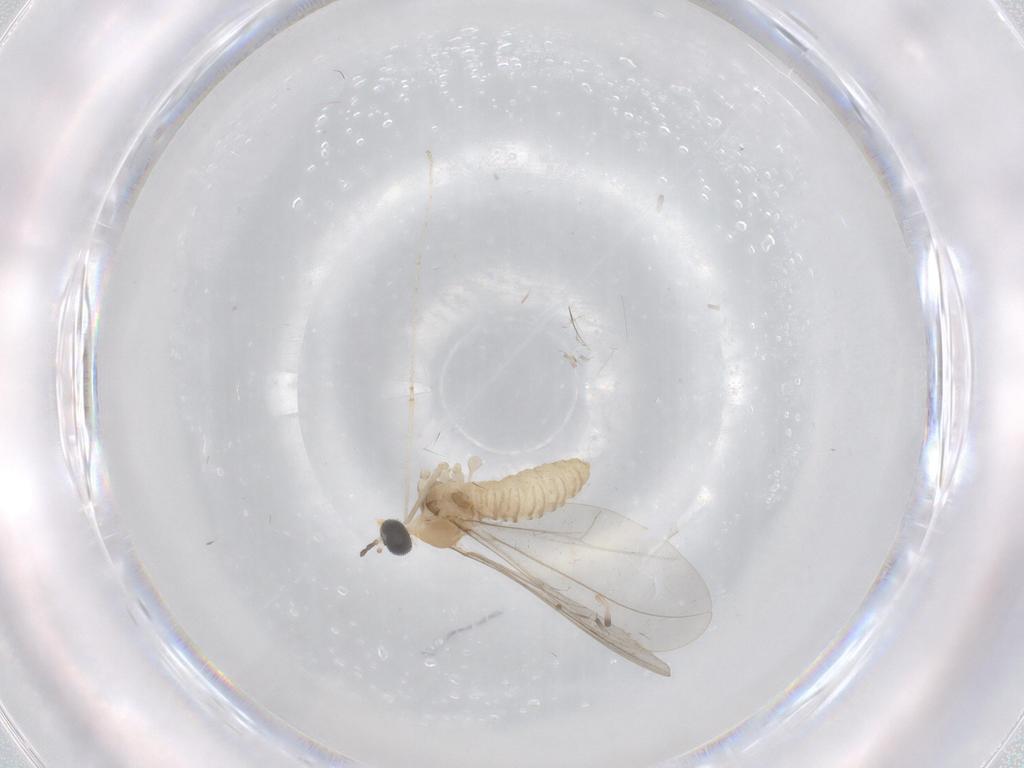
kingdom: Animalia
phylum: Arthropoda
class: Insecta
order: Diptera
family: Cecidomyiidae
